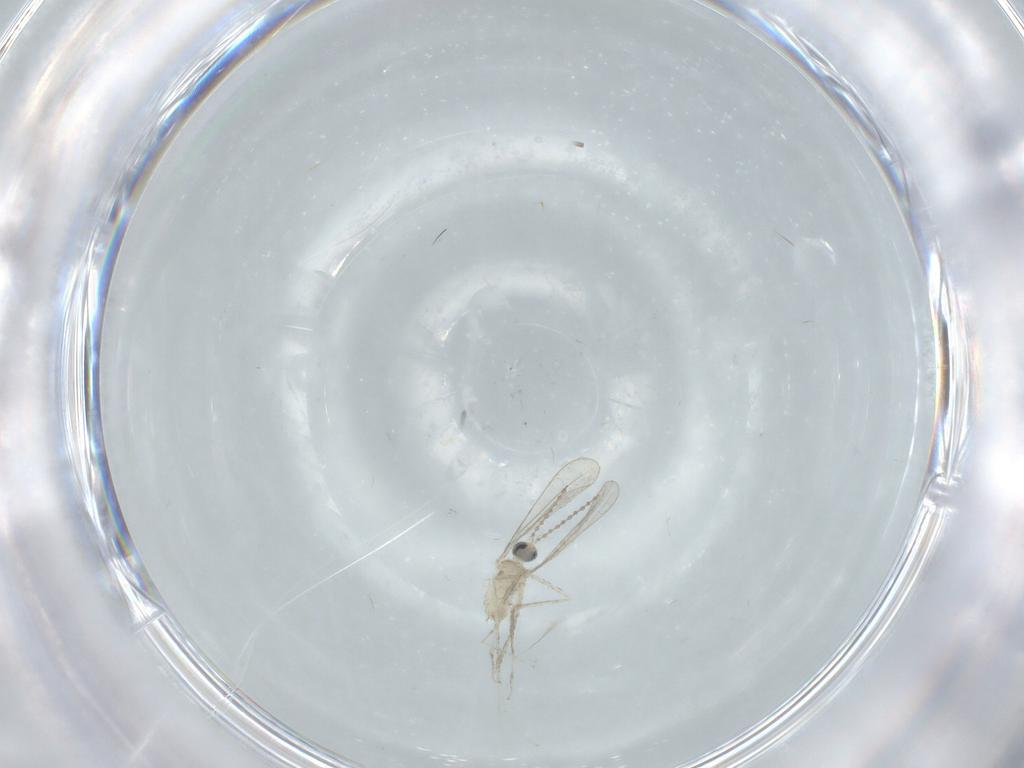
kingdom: Animalia
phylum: Arthropoda
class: Insecta
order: Diptera
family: Cecidomyiidae
